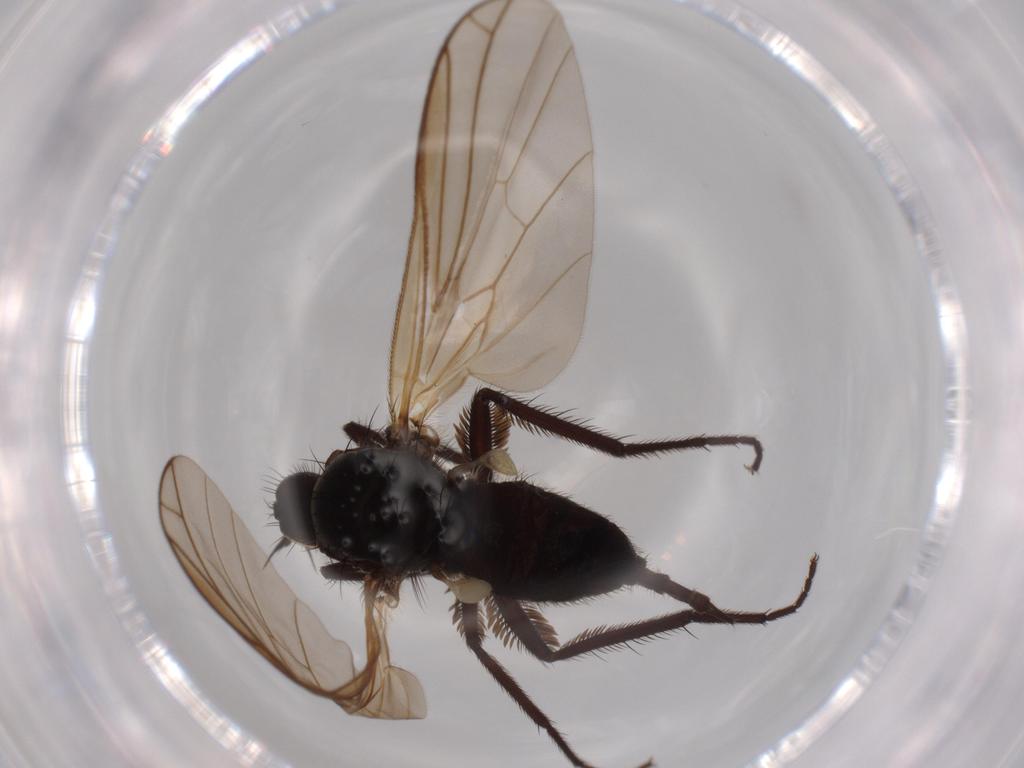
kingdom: Animalia
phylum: Arthropoda
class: Insecta
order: Diptera
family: Empididae
